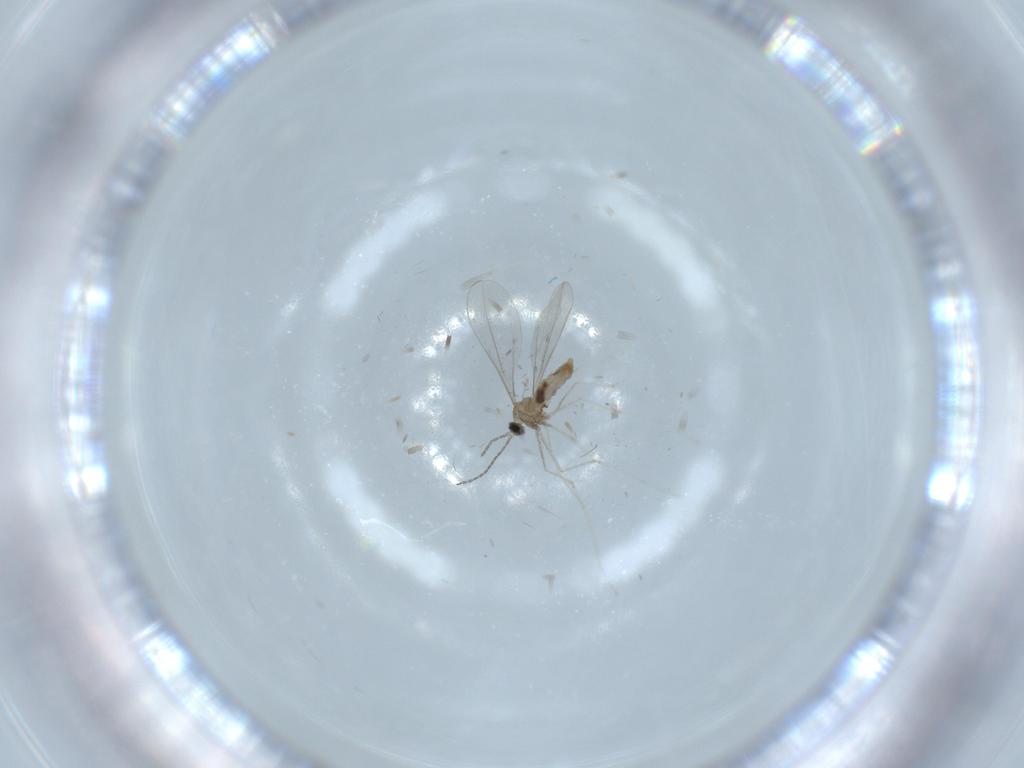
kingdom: Animalia
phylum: Arthropoda
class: Insecta
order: Diptera
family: Cecidomyiidae
